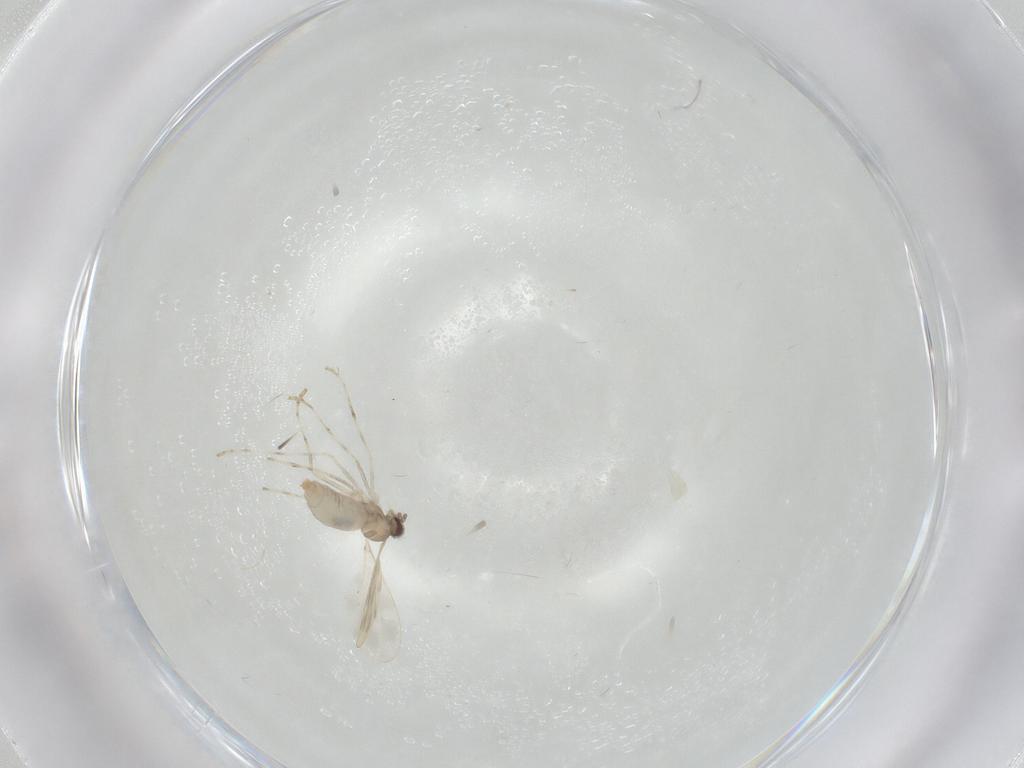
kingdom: Animalia
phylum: Arthropoda
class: Insecta
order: Diptera
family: Cecidomyiidae
